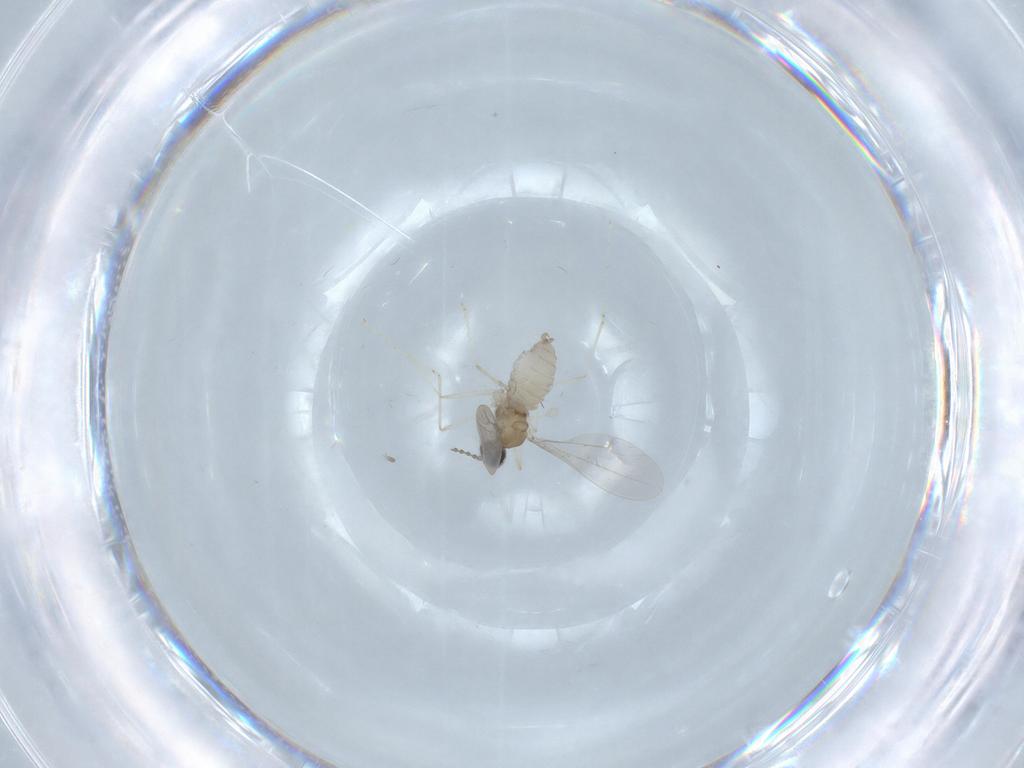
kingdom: Animalia
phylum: Arthropoda
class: Insecta
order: Diptera
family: Cecidomyiidae
